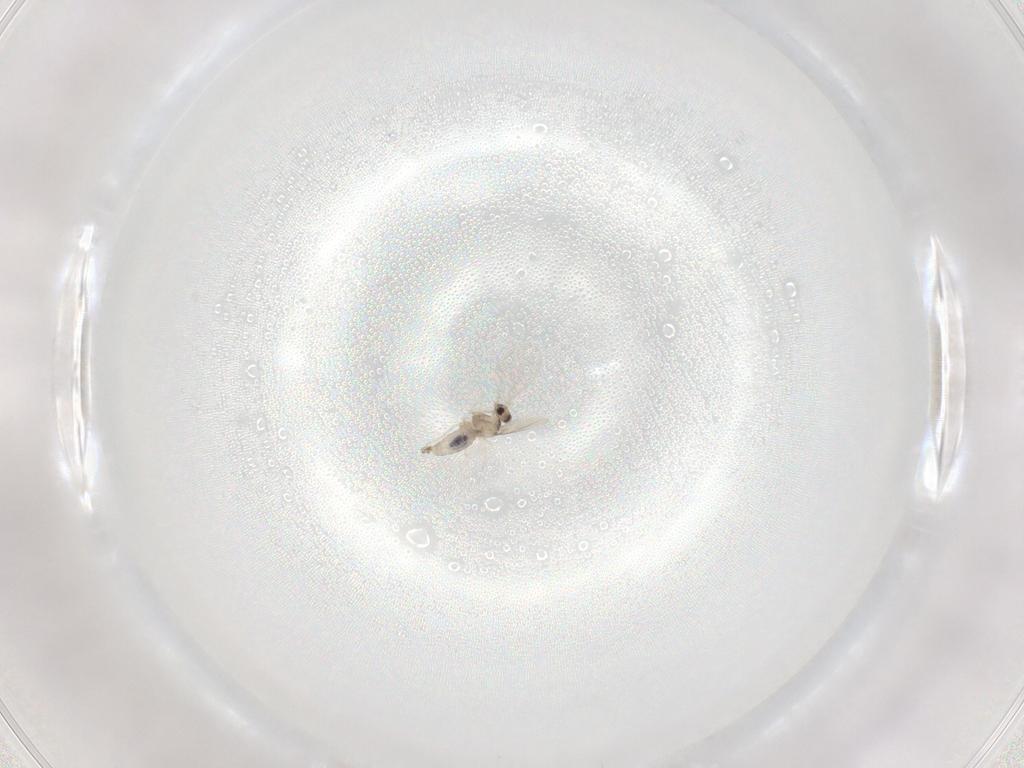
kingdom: Animalia
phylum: Arthropoda
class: Insecta
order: Diptera
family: Cecidomyiidae
